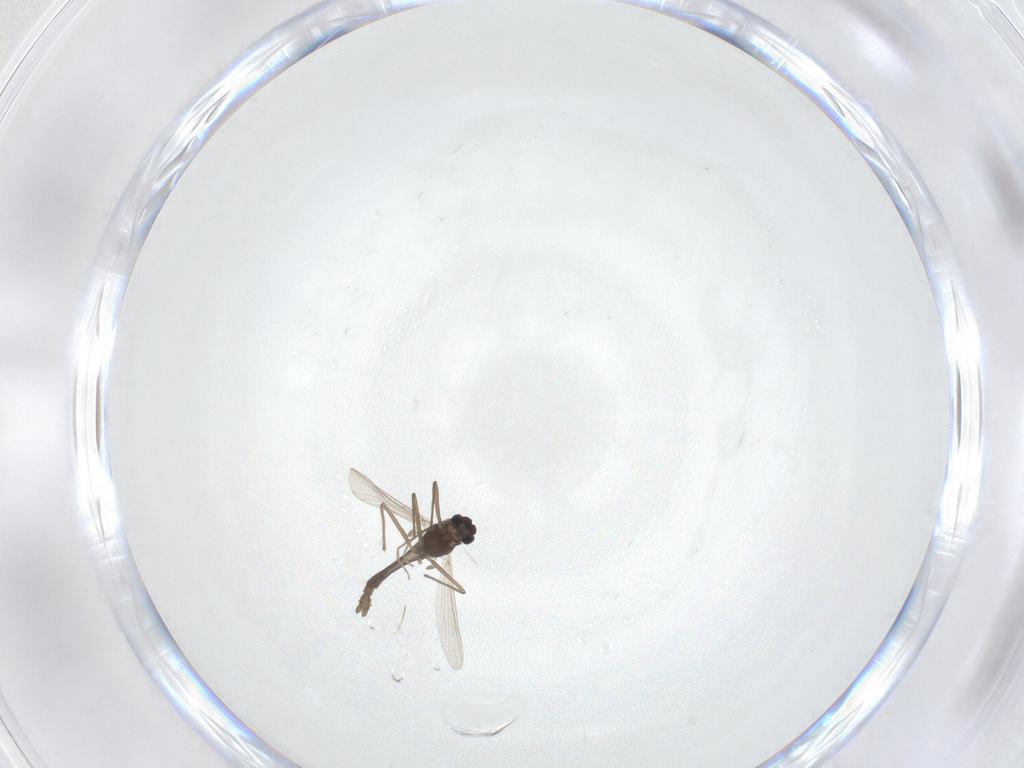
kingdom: Animalia
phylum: Arthropoda
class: Insecta
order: Diptera
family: Chironomidae
